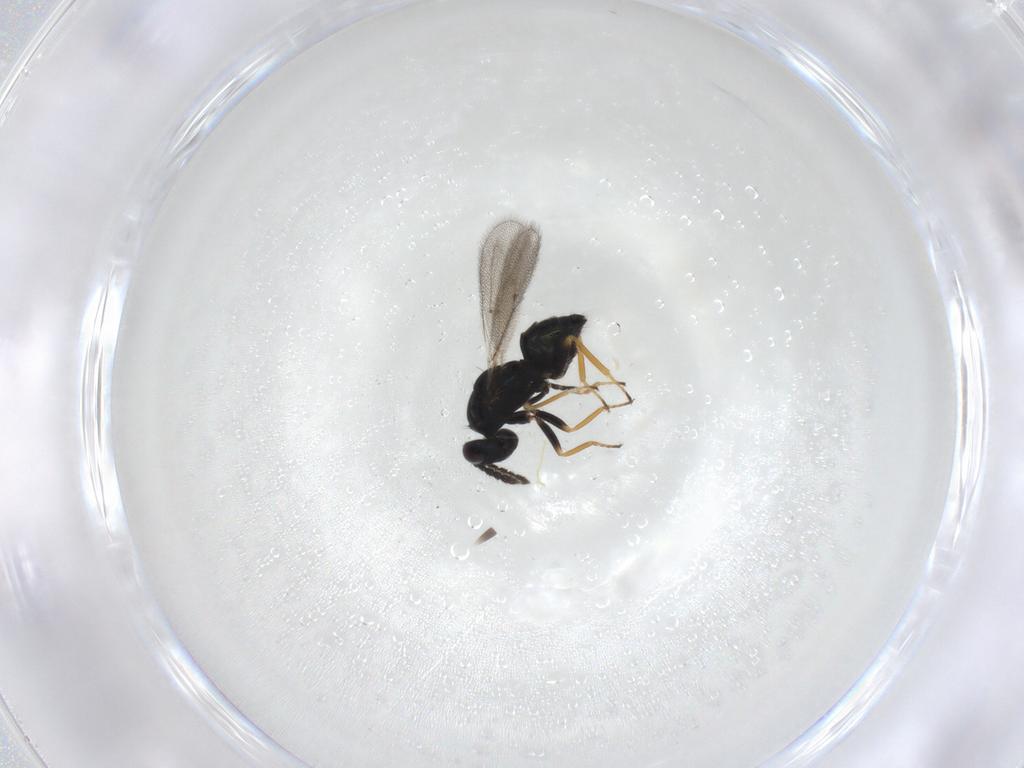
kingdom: Animalia
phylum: Arthropoda
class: Insecta
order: Hymenoptera
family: Eulophidae
